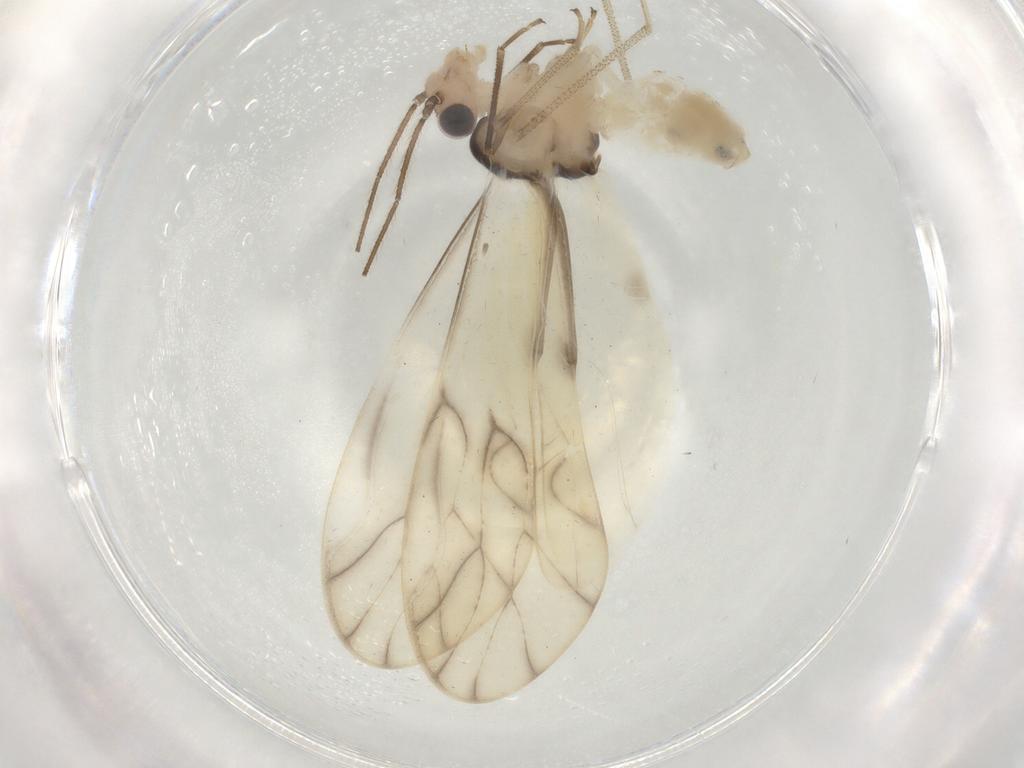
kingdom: Animalia
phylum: Arthropoda
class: Insecta
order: Psocodea
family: Caeciliusidae
